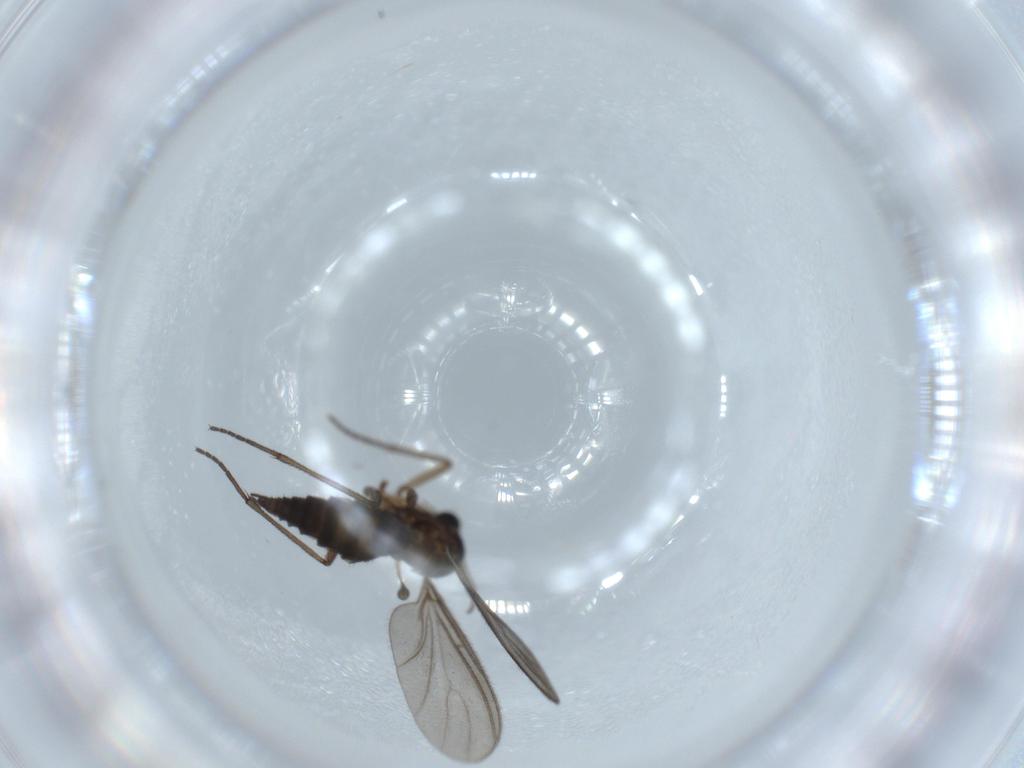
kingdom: Animalia
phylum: Arthropoda
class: Insecta
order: Diptera
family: Sciaridae
